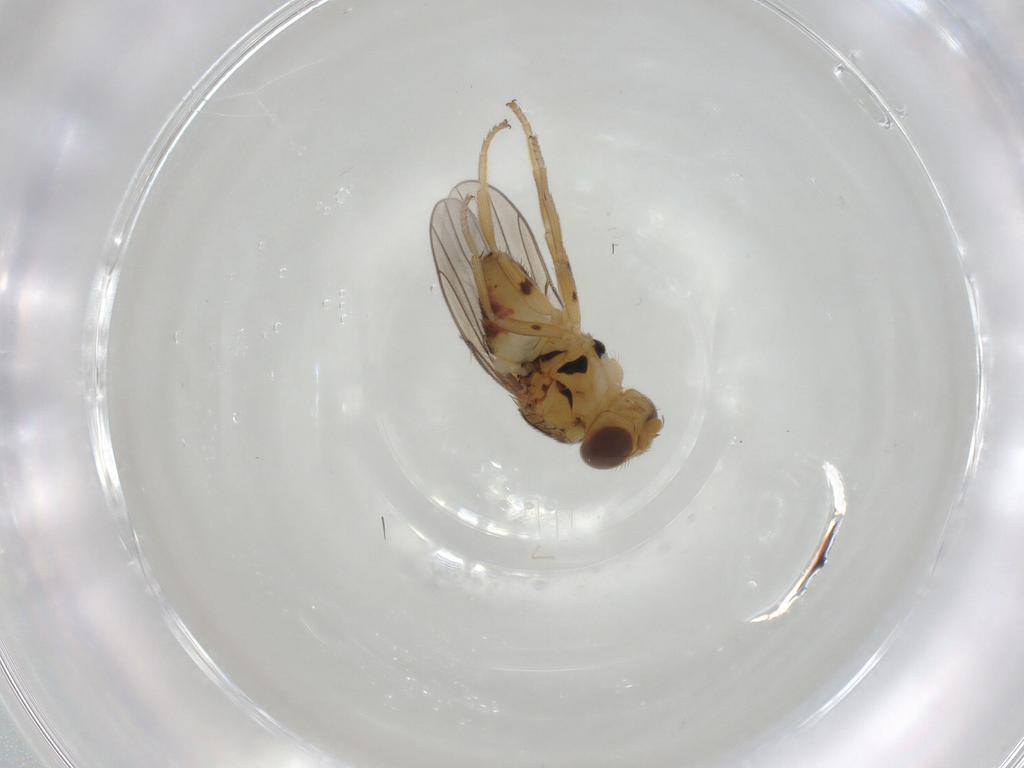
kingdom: Animalia
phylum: Arthropoda
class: Insecta
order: Diptera
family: Chloropidae
